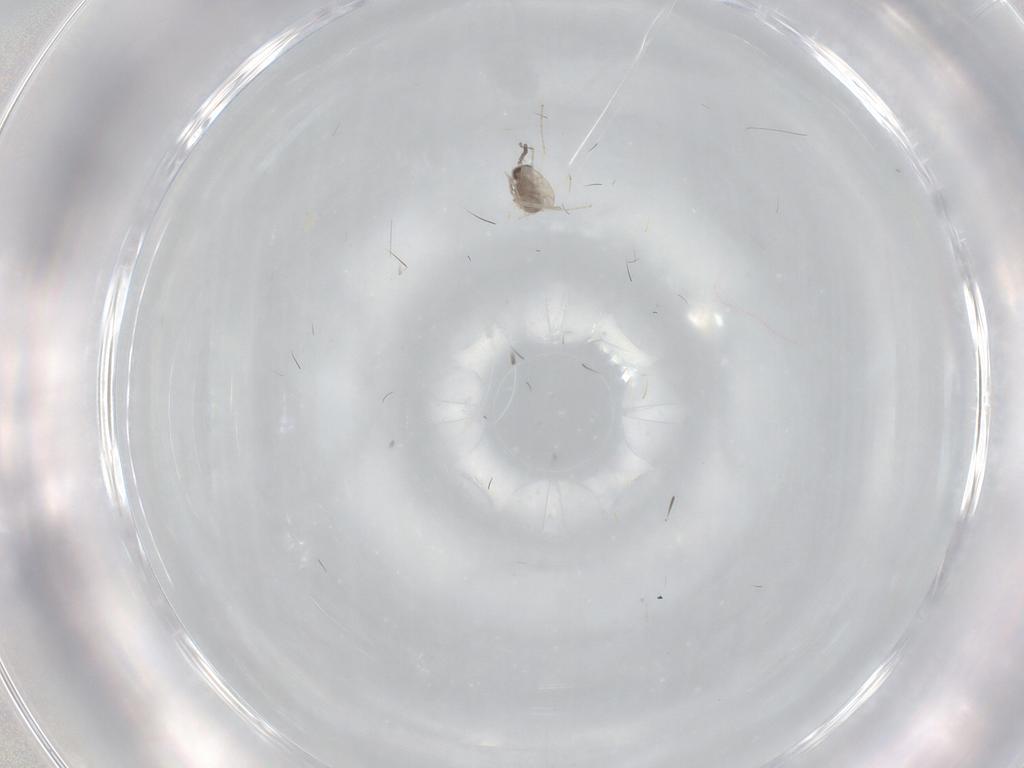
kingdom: Animalia
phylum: Arthropoda
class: Insecta
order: Diptera
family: Cecidomyiidae
